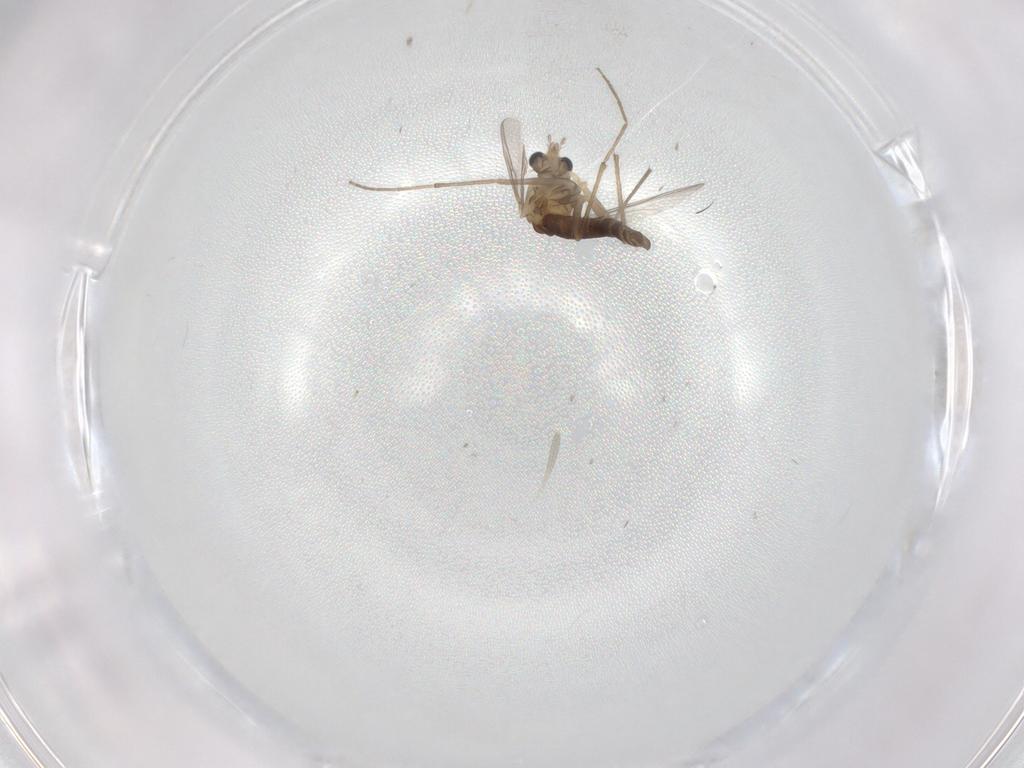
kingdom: Animalia
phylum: Arthropoda
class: Insecta
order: Diptera
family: Chironomidae
